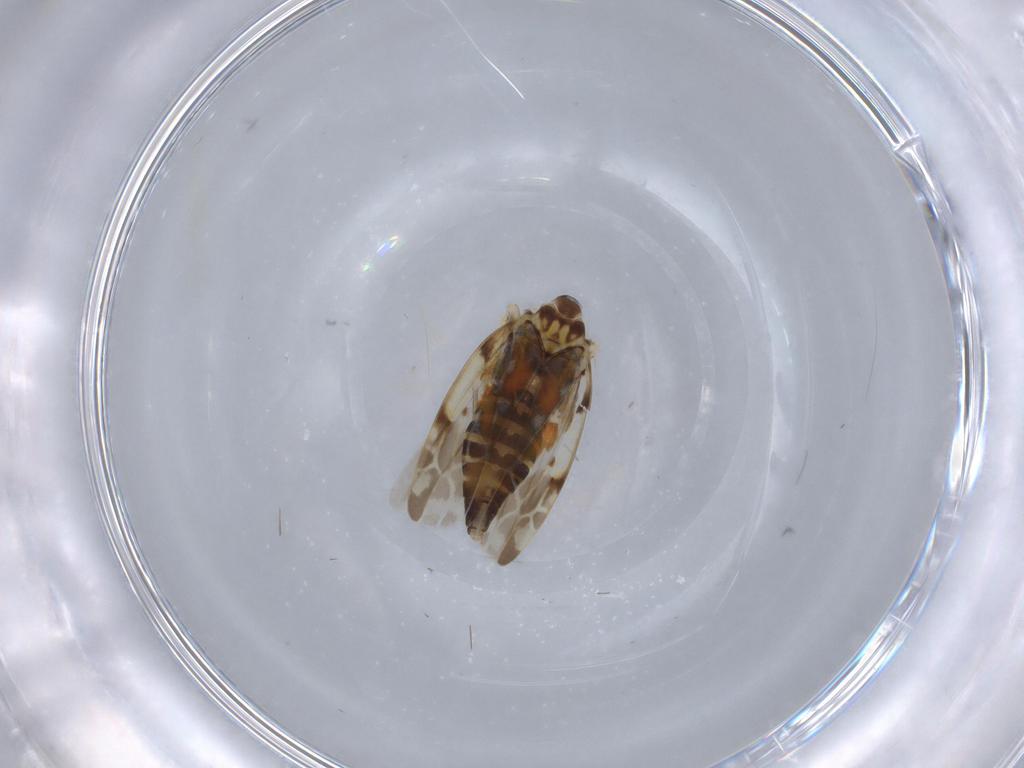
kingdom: Animalia
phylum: Arthropoda
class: Insecta
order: Hemiptera
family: Cicadellidae
